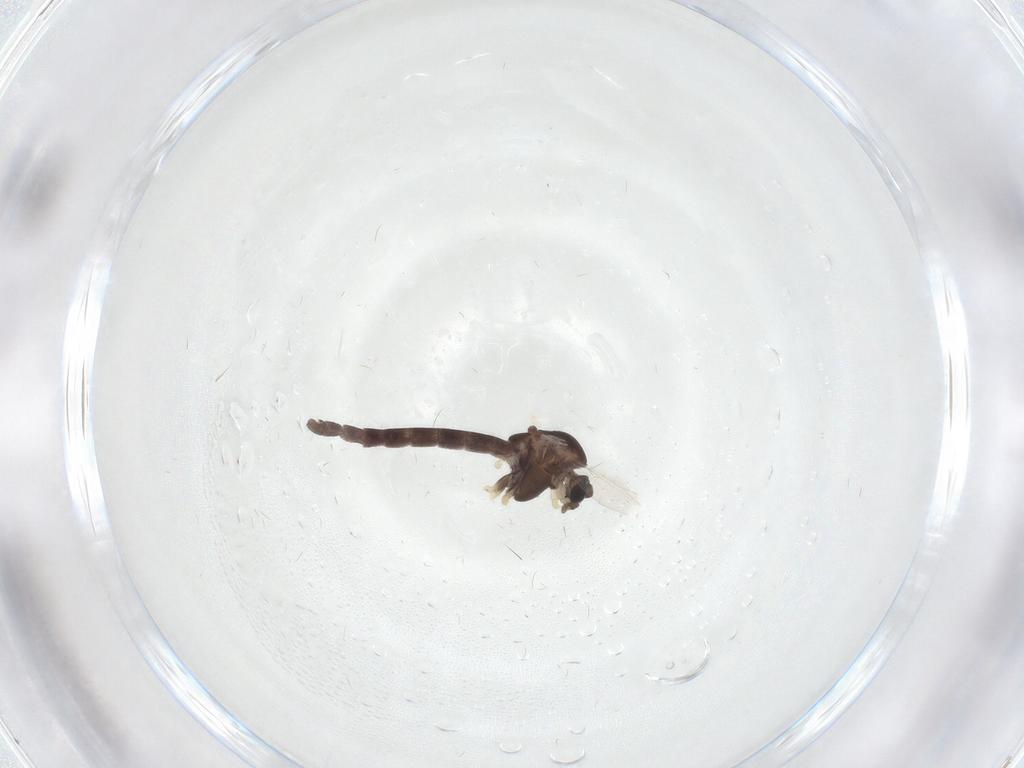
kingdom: Animalia
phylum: Arthropoda
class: Insecta
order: Diptera
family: Chironomidae
